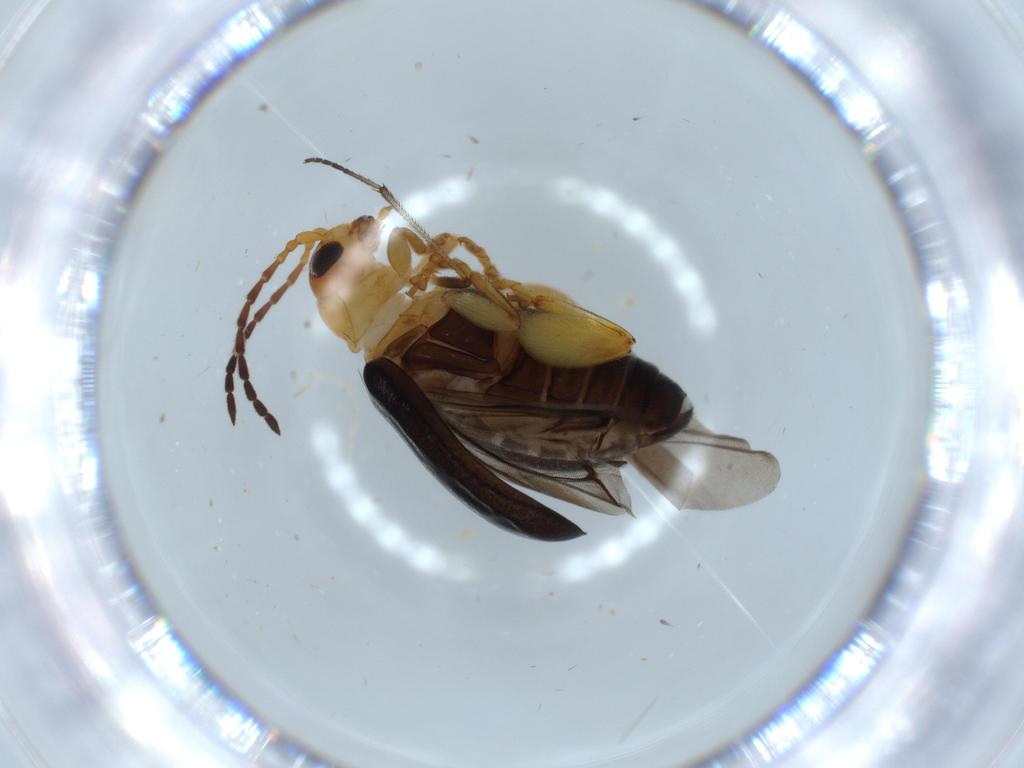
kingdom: Animalia
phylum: Arthropoda
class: Insecta
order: Coleoptera
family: Chrysomelidae
